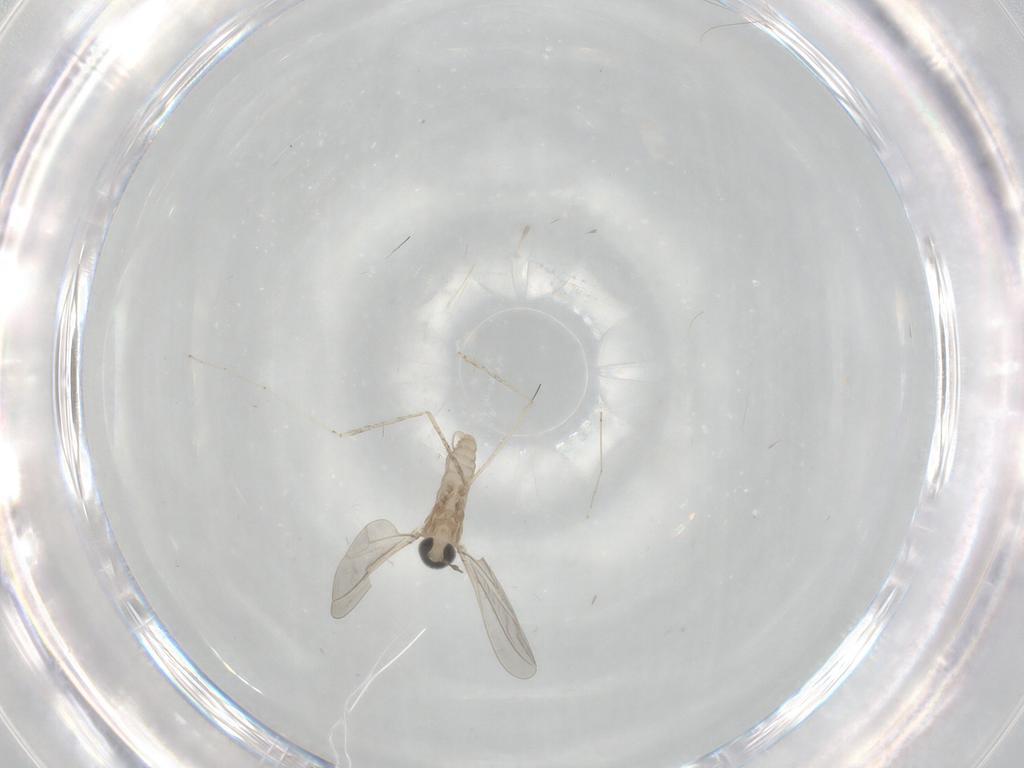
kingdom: Animalia
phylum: Arthropoda
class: Insecta
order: Diptera
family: Cecidomyiidae
